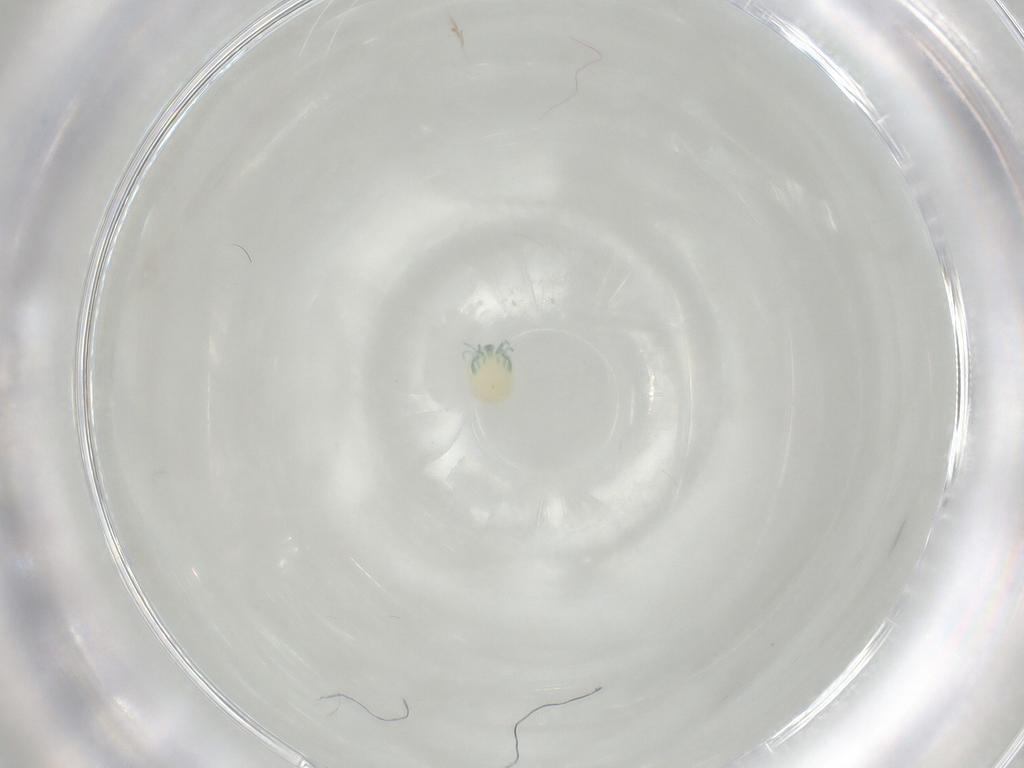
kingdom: Animalia
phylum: Arthropoda
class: Arachnida
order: Trombidiformes
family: Arrenuridae
